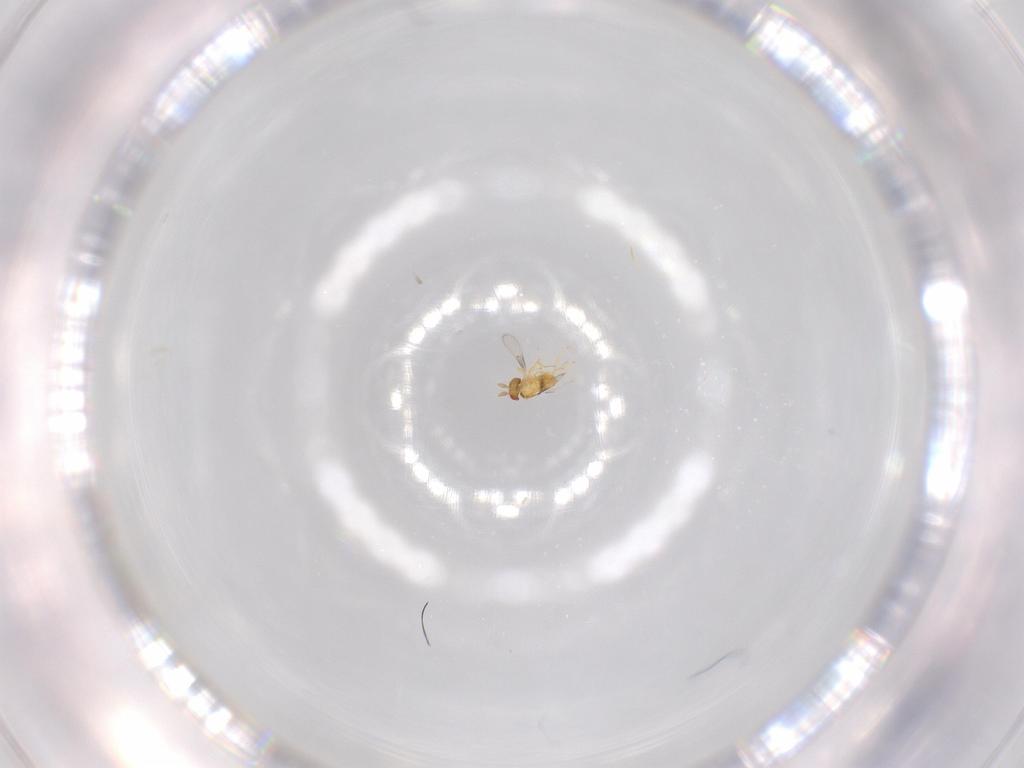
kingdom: Animalia
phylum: Arthropoda
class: Insecta
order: Hymenoptera
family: Trichogrammatidae
